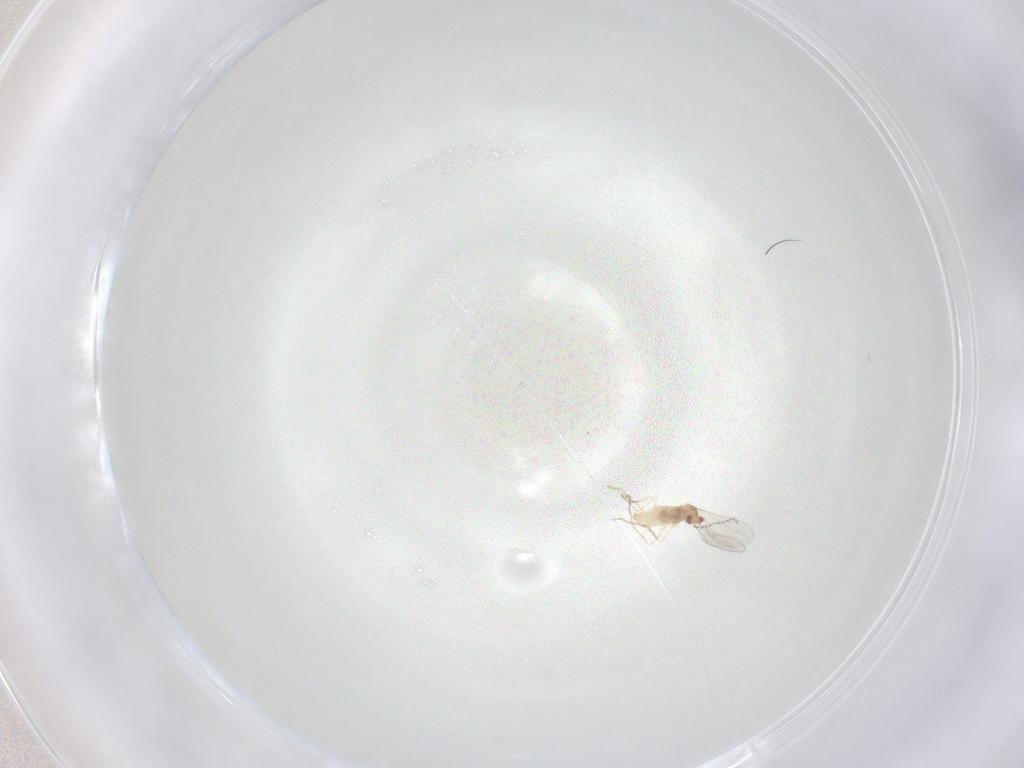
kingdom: Animalia
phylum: Arthropoda
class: Insecta
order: Diptera
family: Cecidomyiidae
